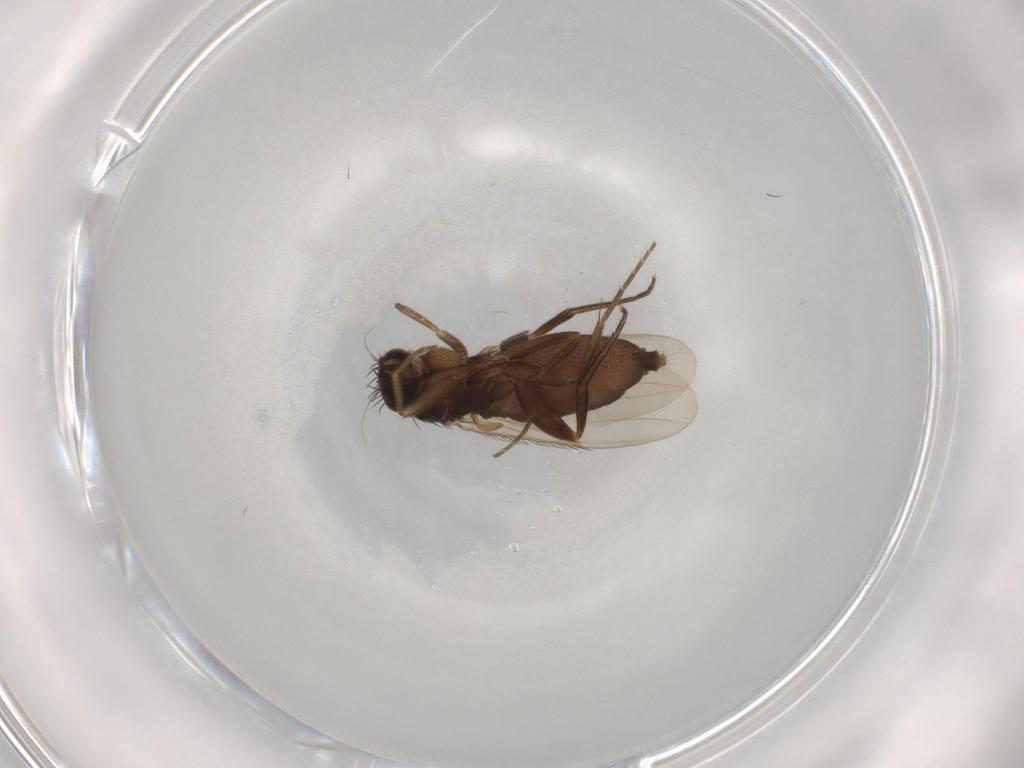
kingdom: Animalia
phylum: Arthropoda
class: Insecta
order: Diptera
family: Phoridae
